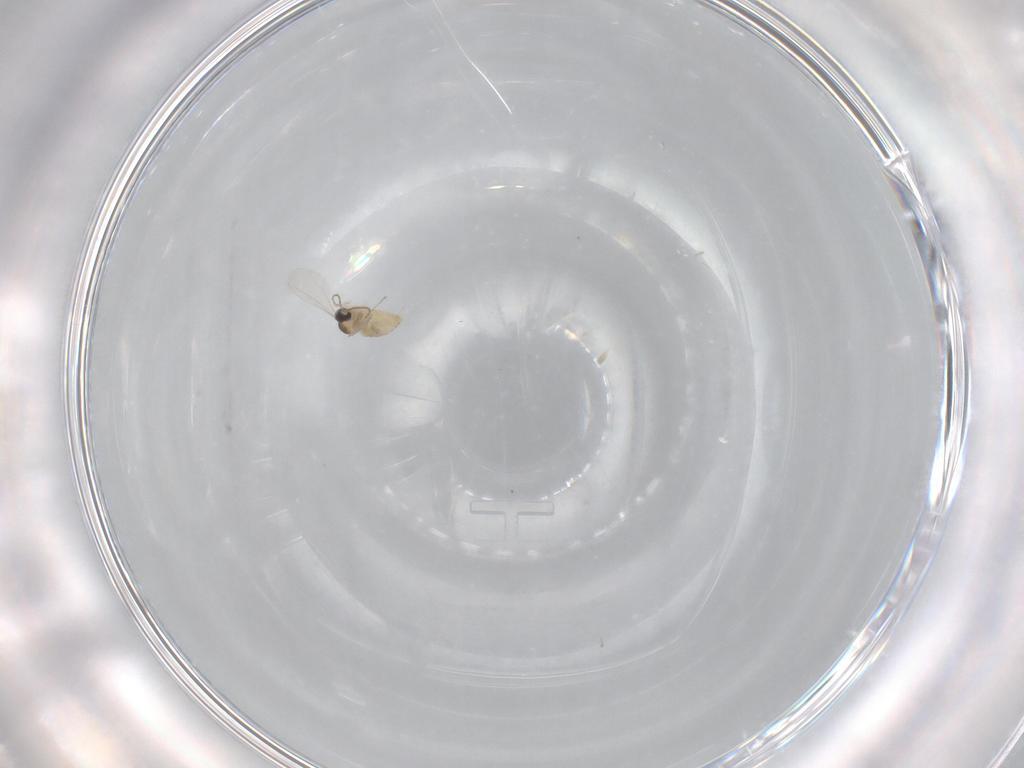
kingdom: Animalia
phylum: Arthropoda
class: Insecta
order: Diptera
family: Cecidomyiidae
